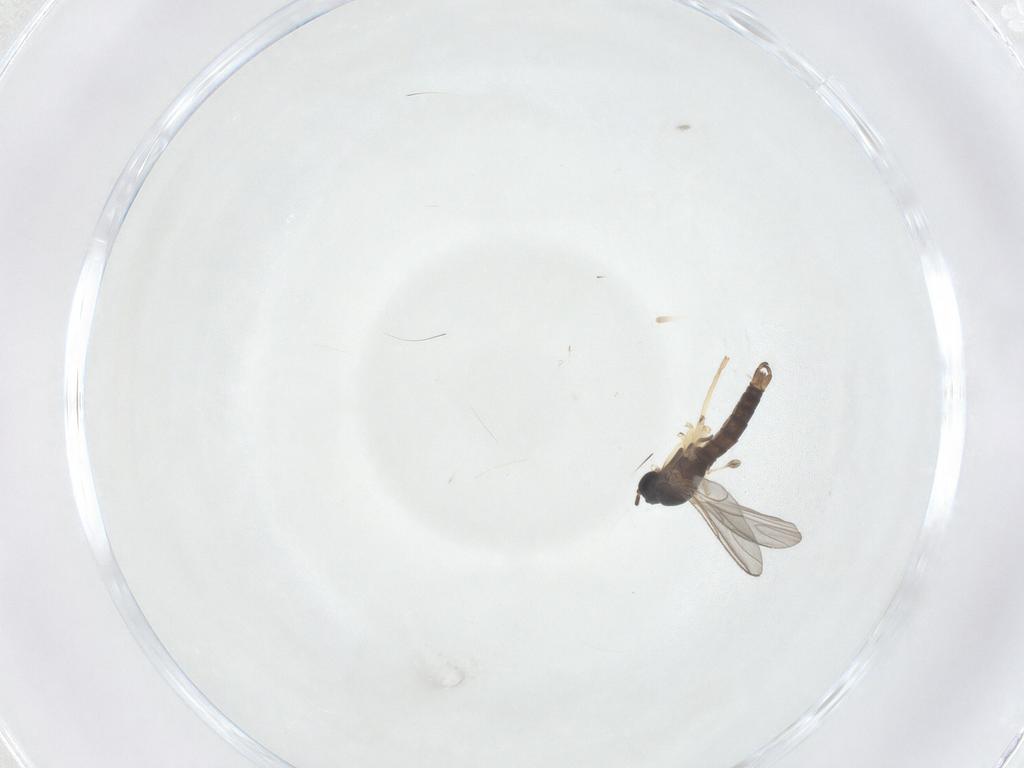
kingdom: Animalia
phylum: Arthropoda
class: Insecta
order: Diptera
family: Sciaridae
